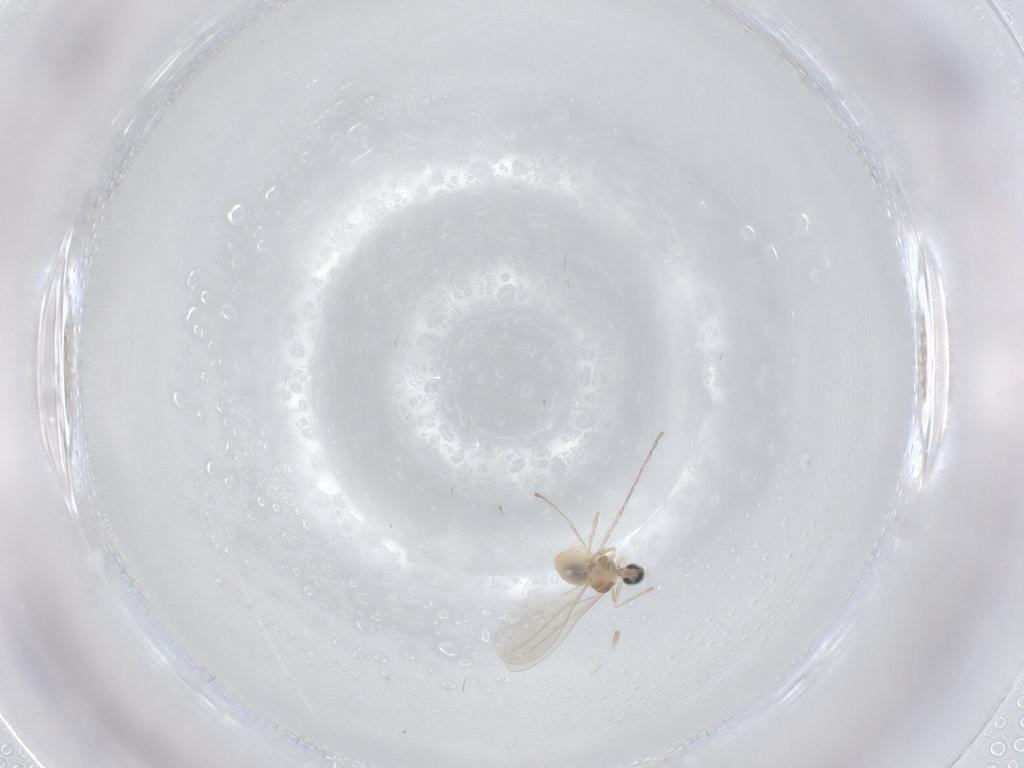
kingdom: Animalia
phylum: Arthropoda
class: Insecta
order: Diptera
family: Cecidomyiidae
